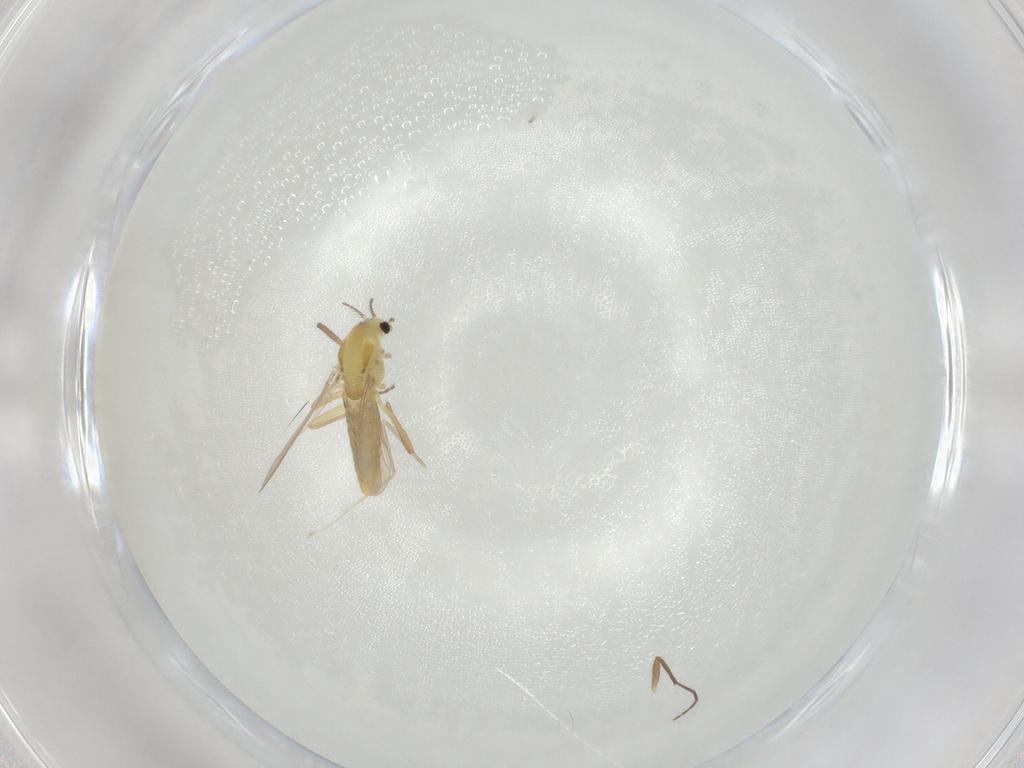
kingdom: Animalia
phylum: Arthropoda
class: Insecta
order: Diptera
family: Chironomidae
